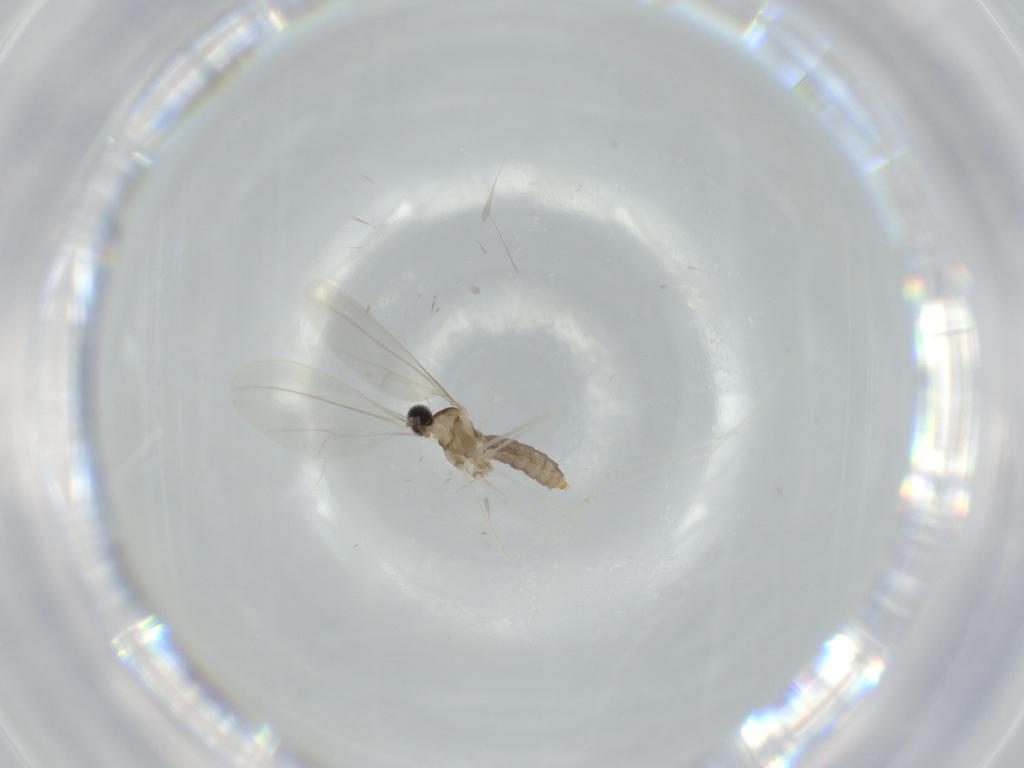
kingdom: Animalia
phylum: Arthropoda
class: Insecta
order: Diptera
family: Cecidomyiidae
